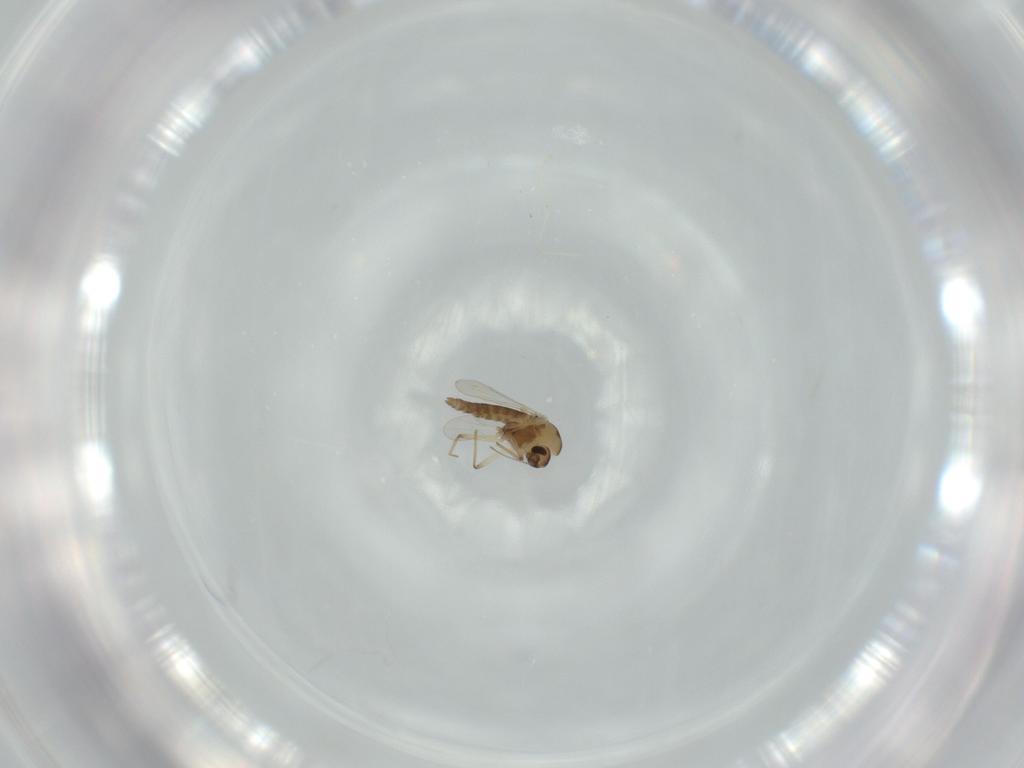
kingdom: Animalia
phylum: Arthropoda
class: Insecta
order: Diptera
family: Chironomidae
